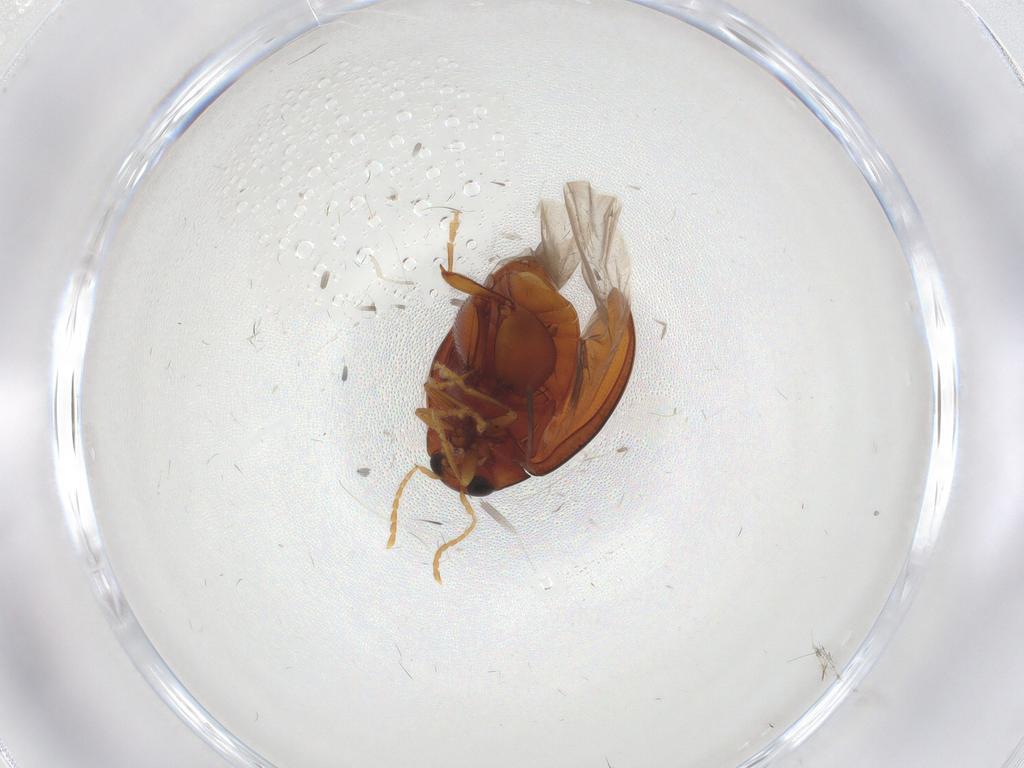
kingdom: Animalia
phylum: Arthropoda
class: Insecta
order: Coleoptera
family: Chrysomelidae
